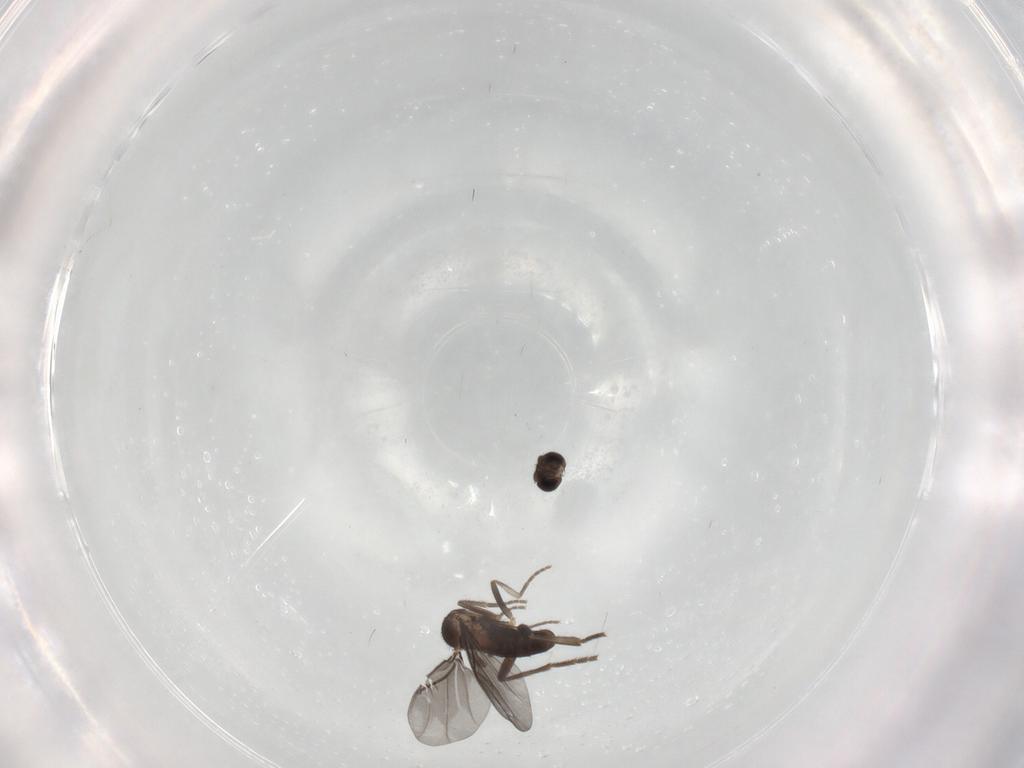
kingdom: Animalia
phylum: Arthropoda
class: Insecta
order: Diptera
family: Phoridae
